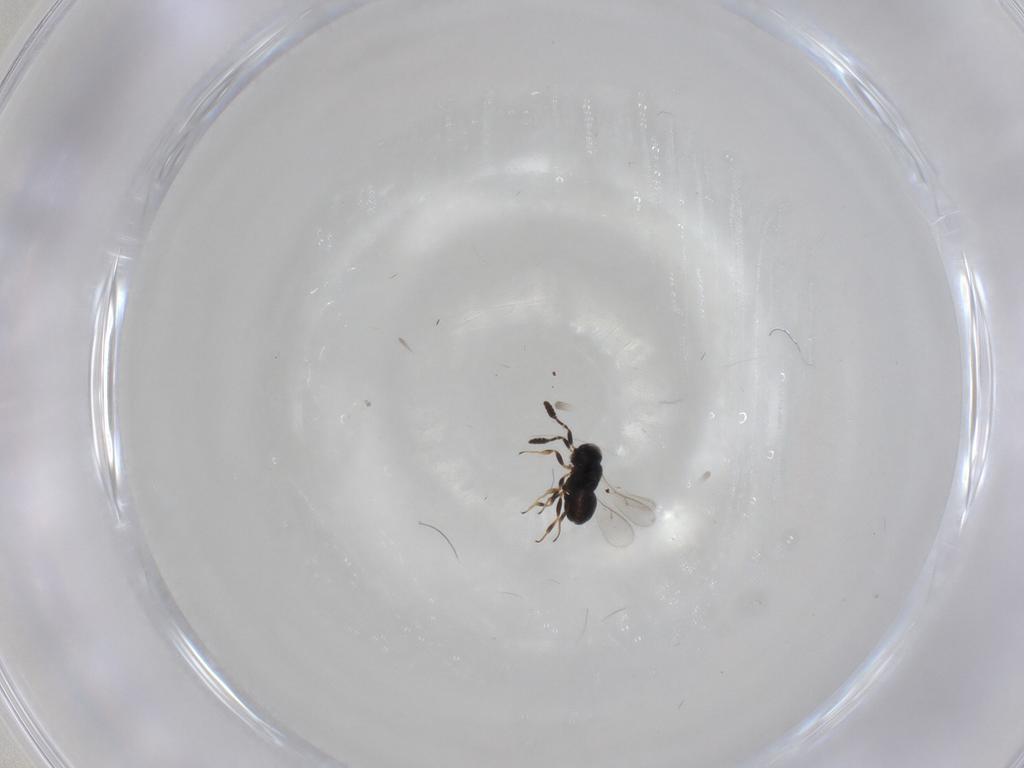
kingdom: Animalia
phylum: Arthropoda
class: Insecta
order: Hymenoptera
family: Scelionidae
